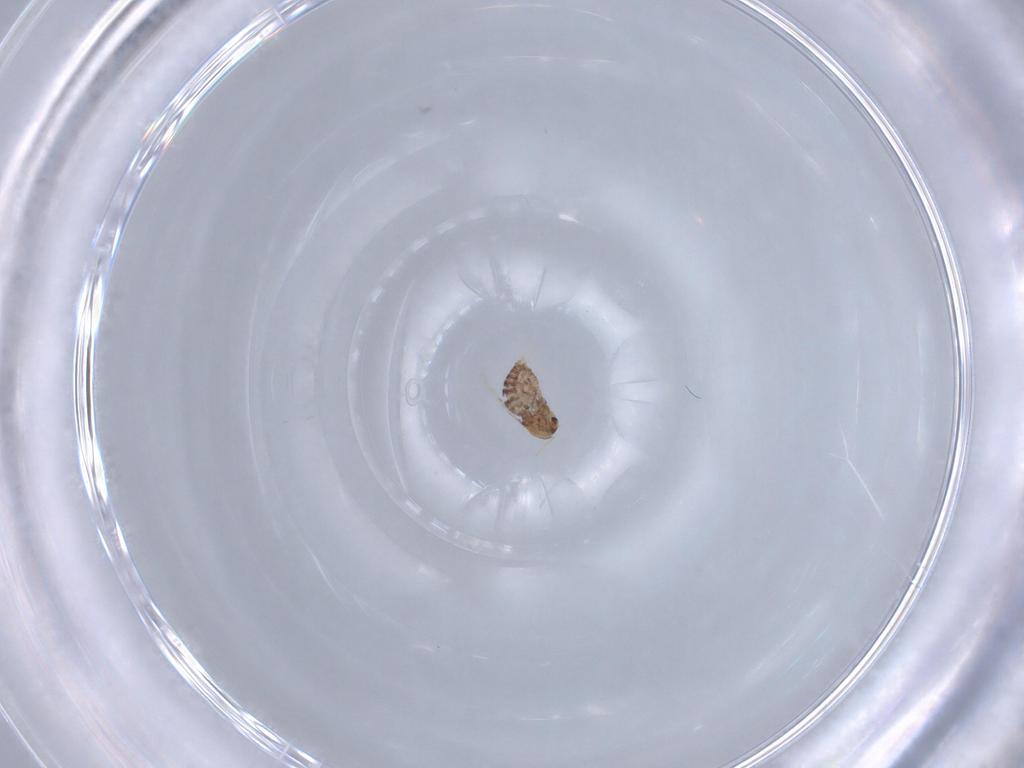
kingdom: Animalia
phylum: Arthropoda
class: Insecta
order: Diptera
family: Chironomidae
